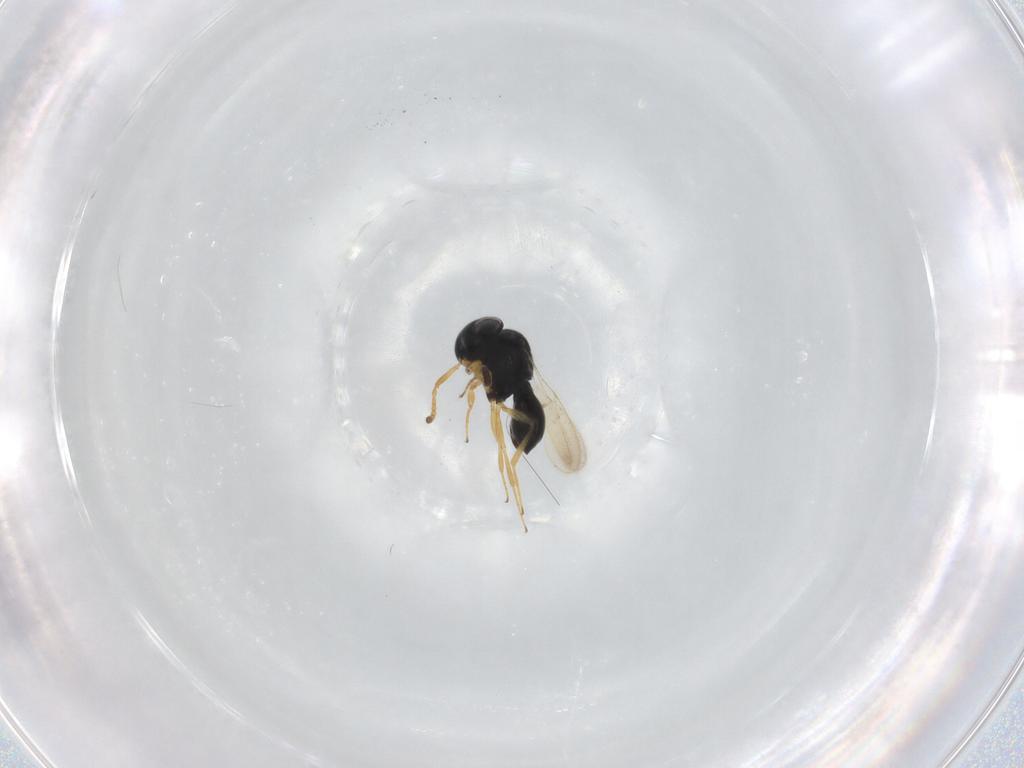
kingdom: Animalia
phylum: Arthropoda
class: Insecta
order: Hymenoptera
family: Scelionidae
